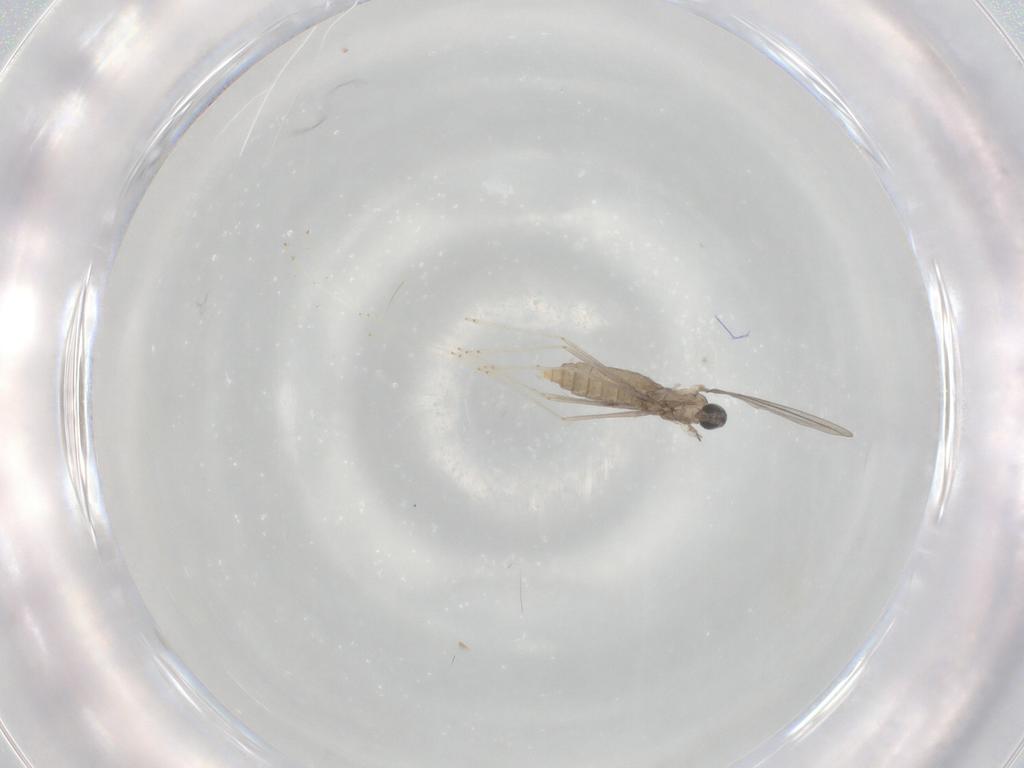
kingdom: Animalia
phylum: Arthropoda
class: Insecta
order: Diptera
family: Cecidomyiidae
